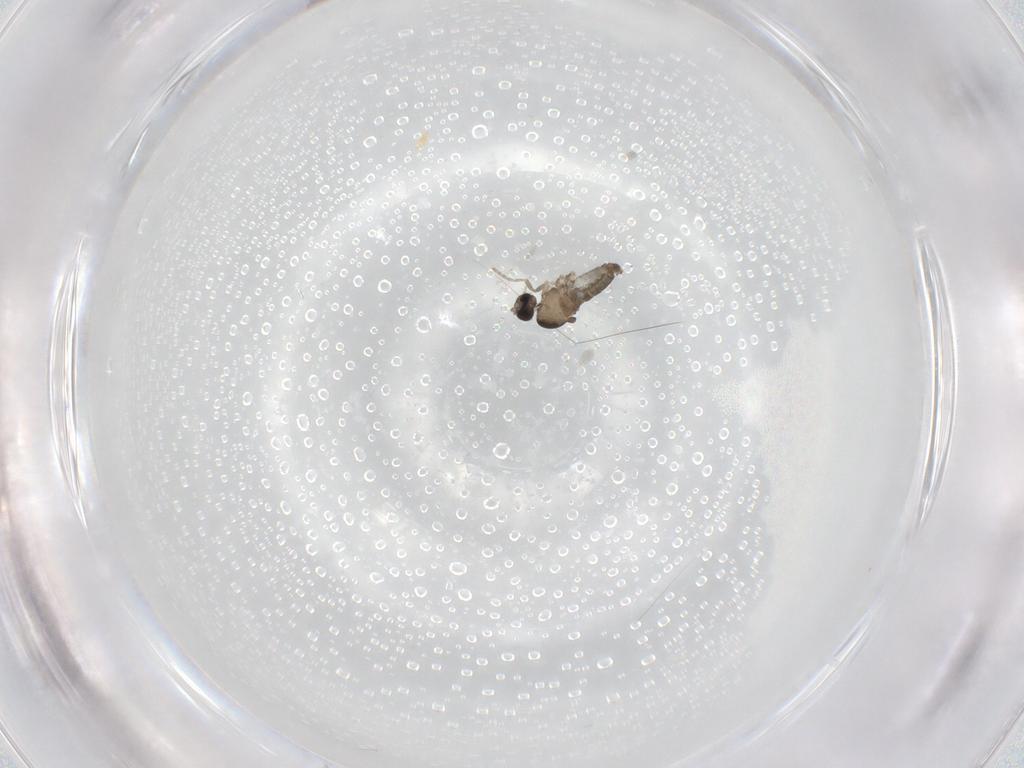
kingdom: Animalia
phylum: Arthropoda
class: Insecta
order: Diptera
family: Cecidomyiidae
